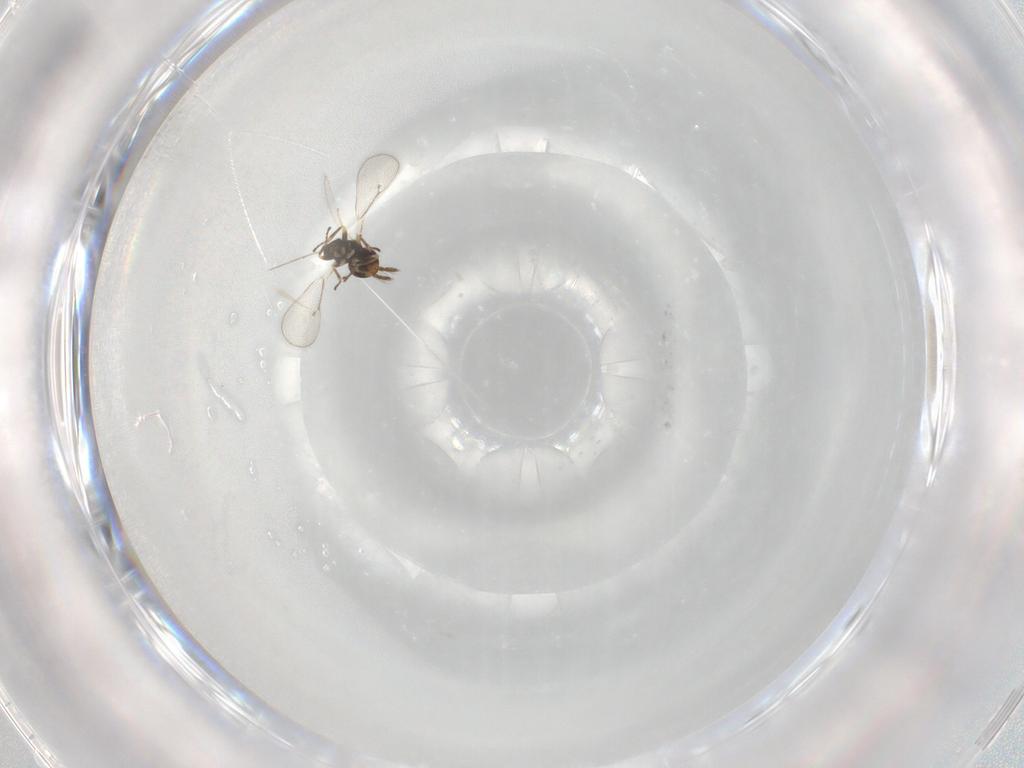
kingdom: Animalia
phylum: Arthropoda
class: Insecta
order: Hymenoptera
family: Eulophidae
